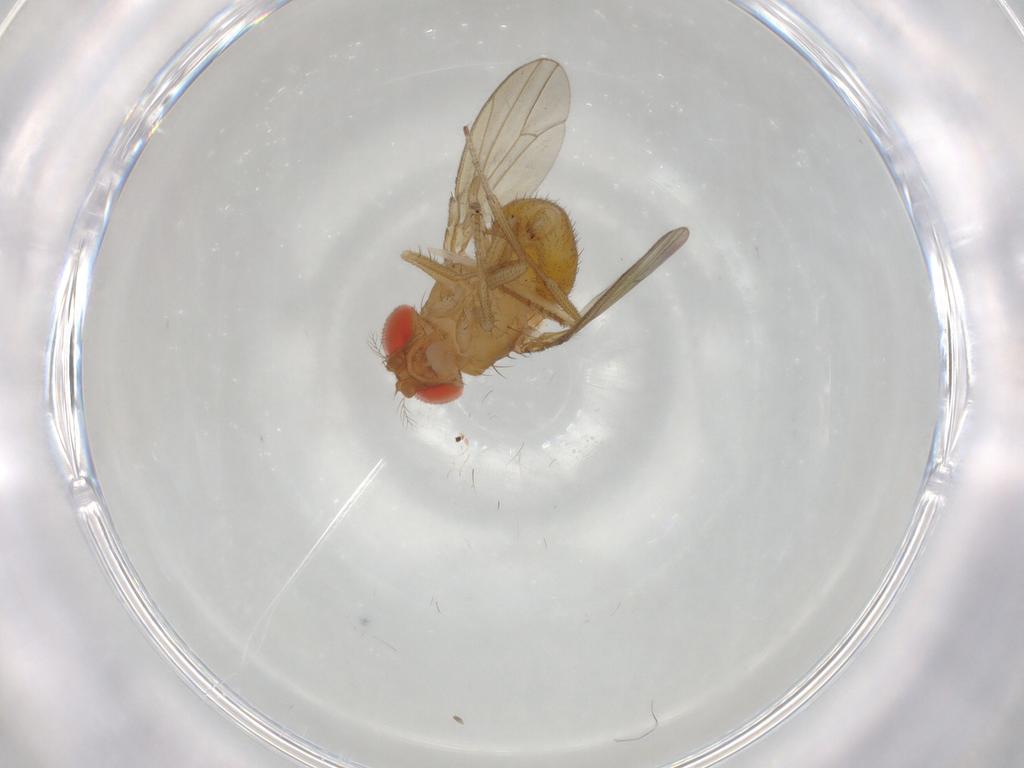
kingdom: Animalia
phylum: Arthropoda
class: Insecta
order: Diptera
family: Drosophilidae
